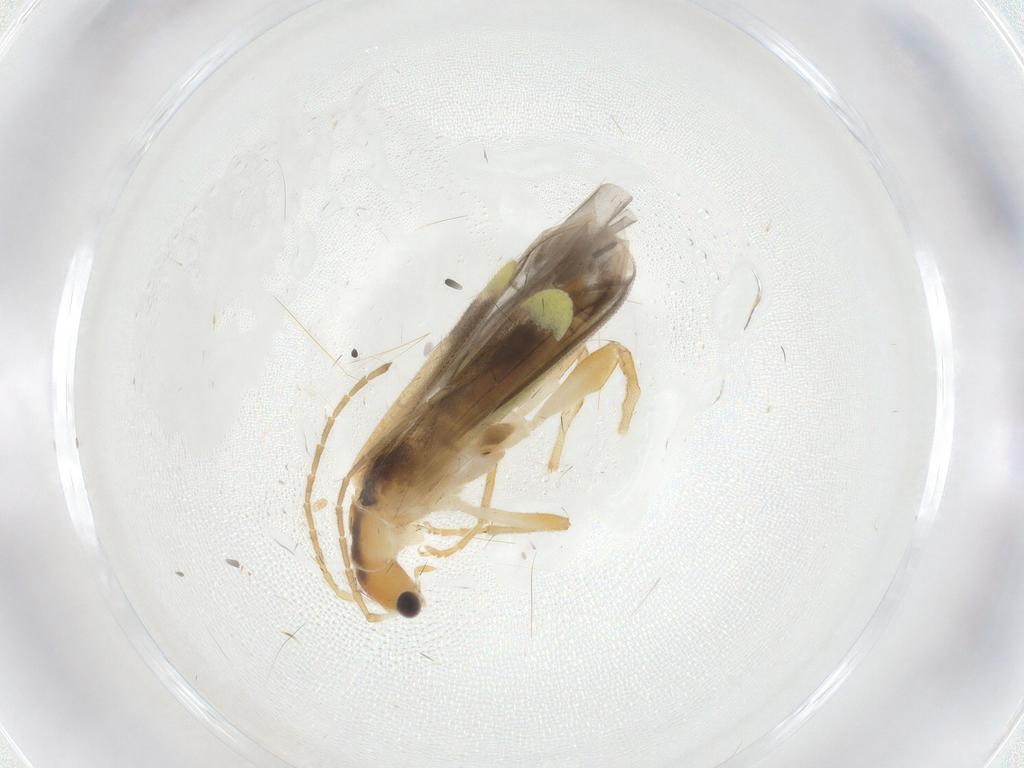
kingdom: Animalia
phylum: Arthropoda
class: Insecta
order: Coleoptera
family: Cantharidae
